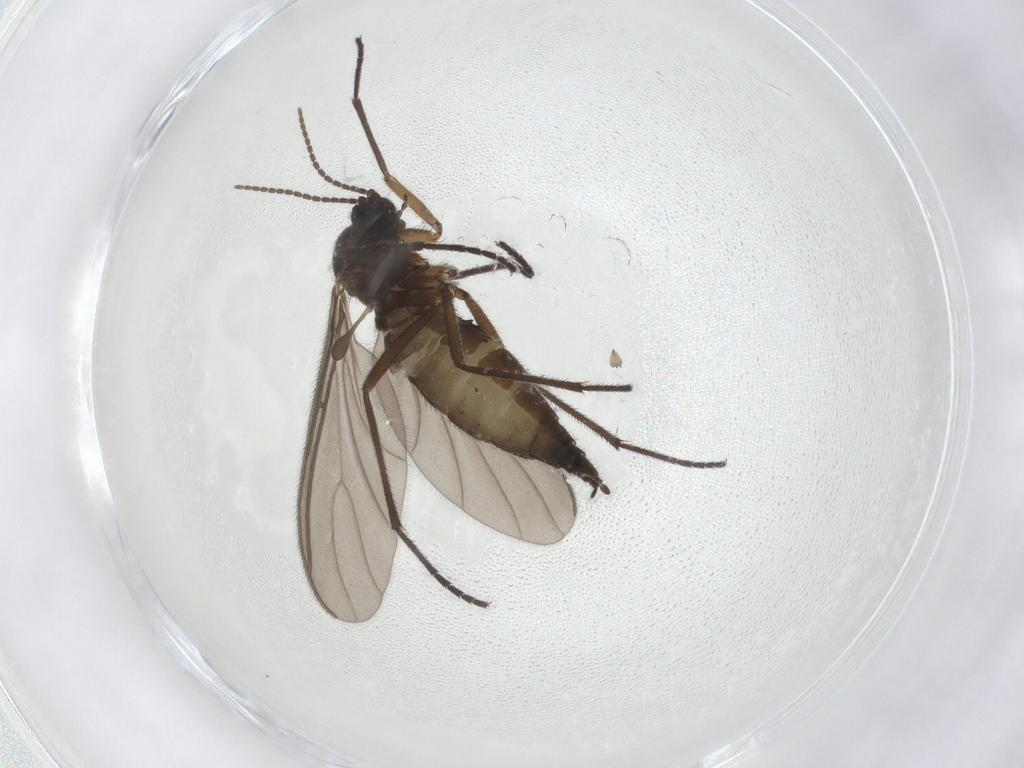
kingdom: Animalia
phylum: Arthropoda
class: Insecta
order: Diptera
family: Sciaridae
